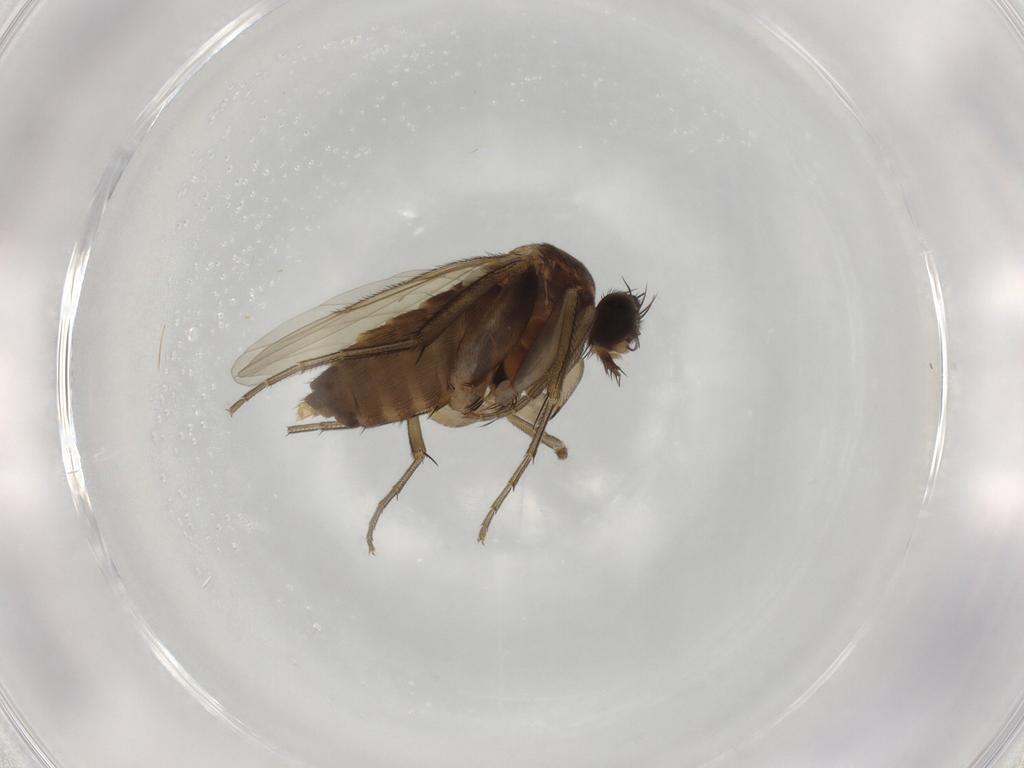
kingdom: Animalia
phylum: Arthropoda
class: Insecta
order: Diptera
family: Phoridae
